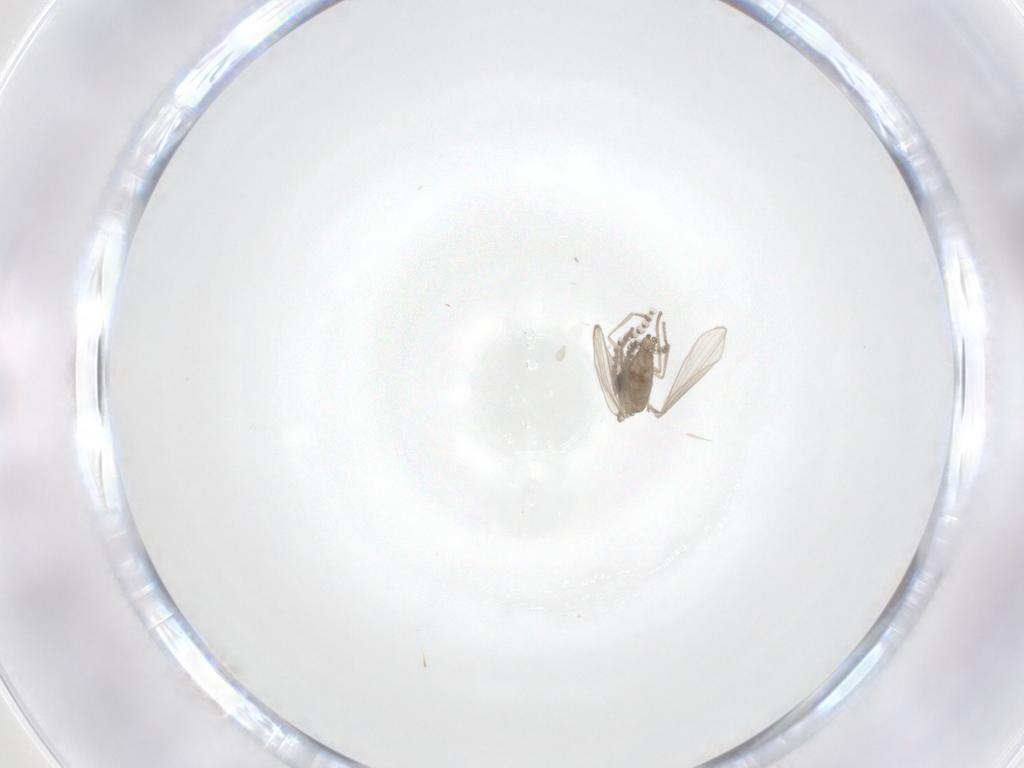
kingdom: Animalia
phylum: Arthropoda
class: Insecta
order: Diptera
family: Psychodidae
